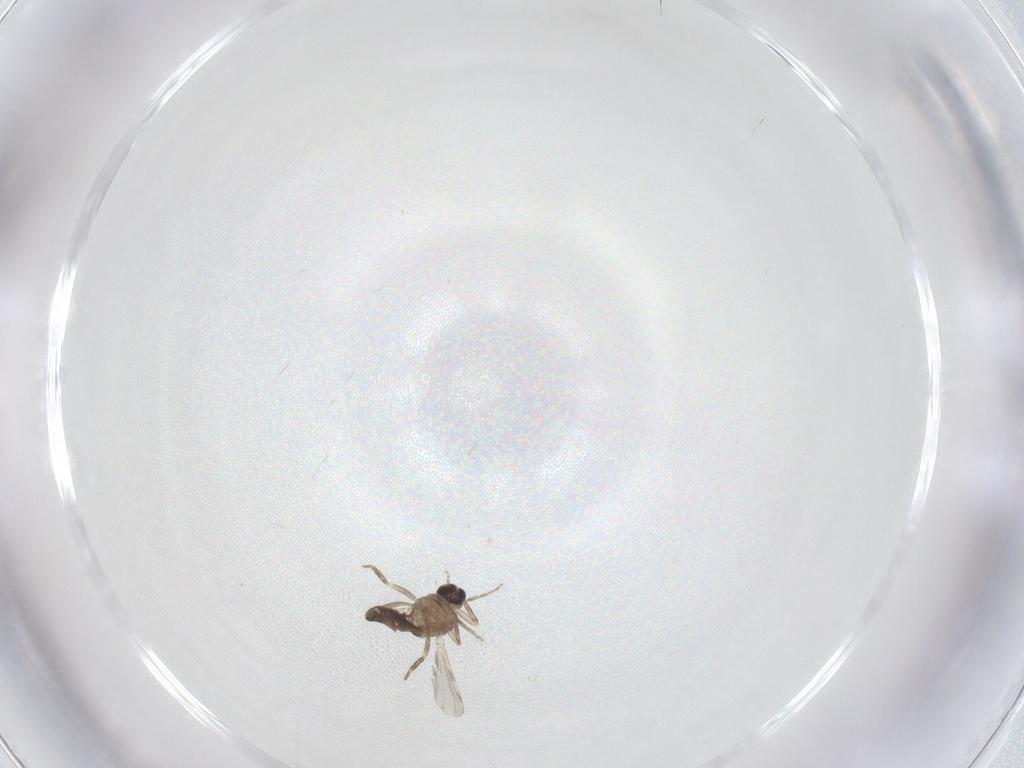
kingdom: Animalia
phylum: Arthropoda
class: Insecta
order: Diptera
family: Ceratopogonidae
